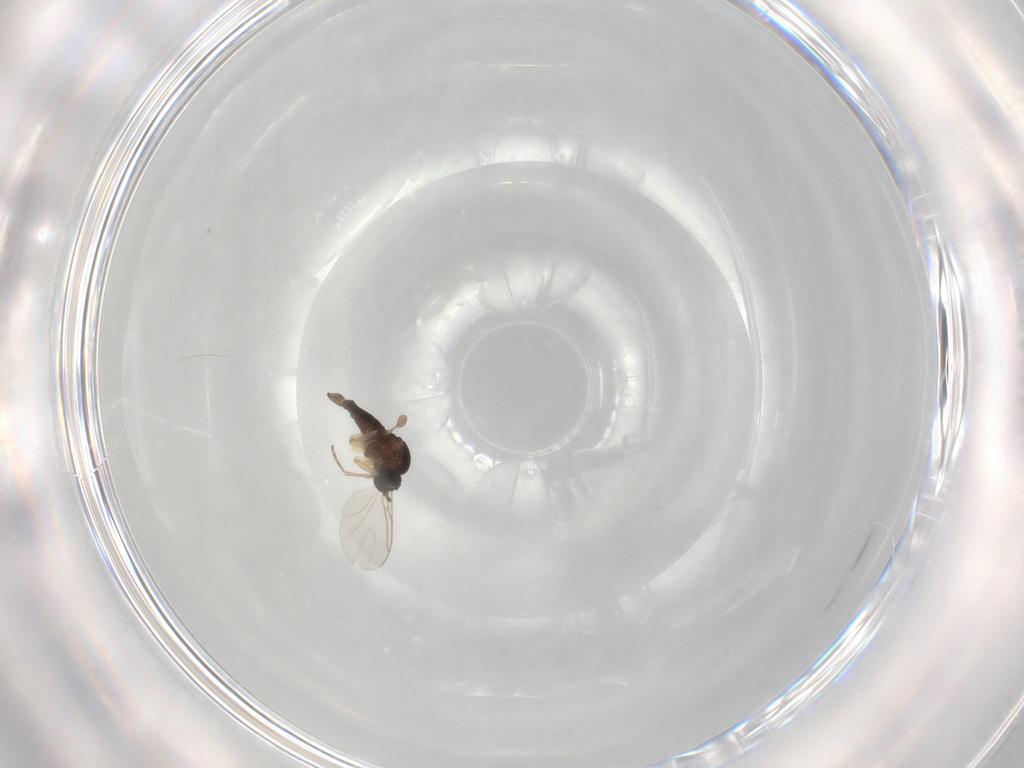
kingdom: Animalia
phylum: Arthropoda
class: Insecta
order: Diptera
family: Sciaridae
